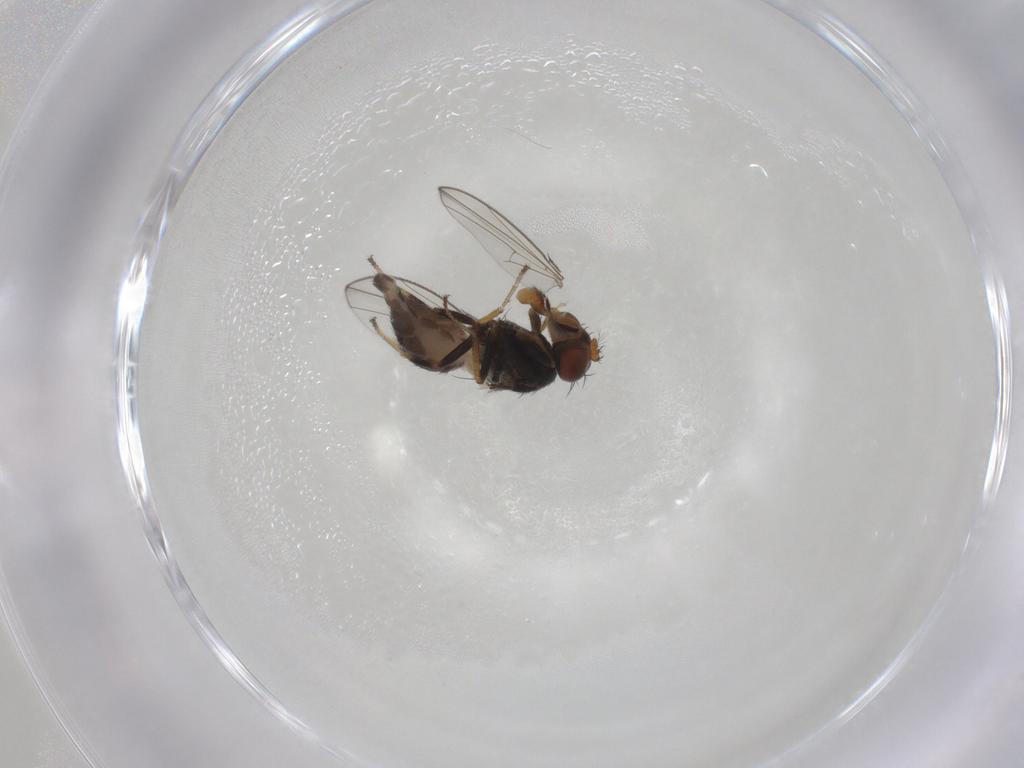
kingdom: Animalia
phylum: Arthropoda
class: Insecta
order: Diptera
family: Ephydridae
